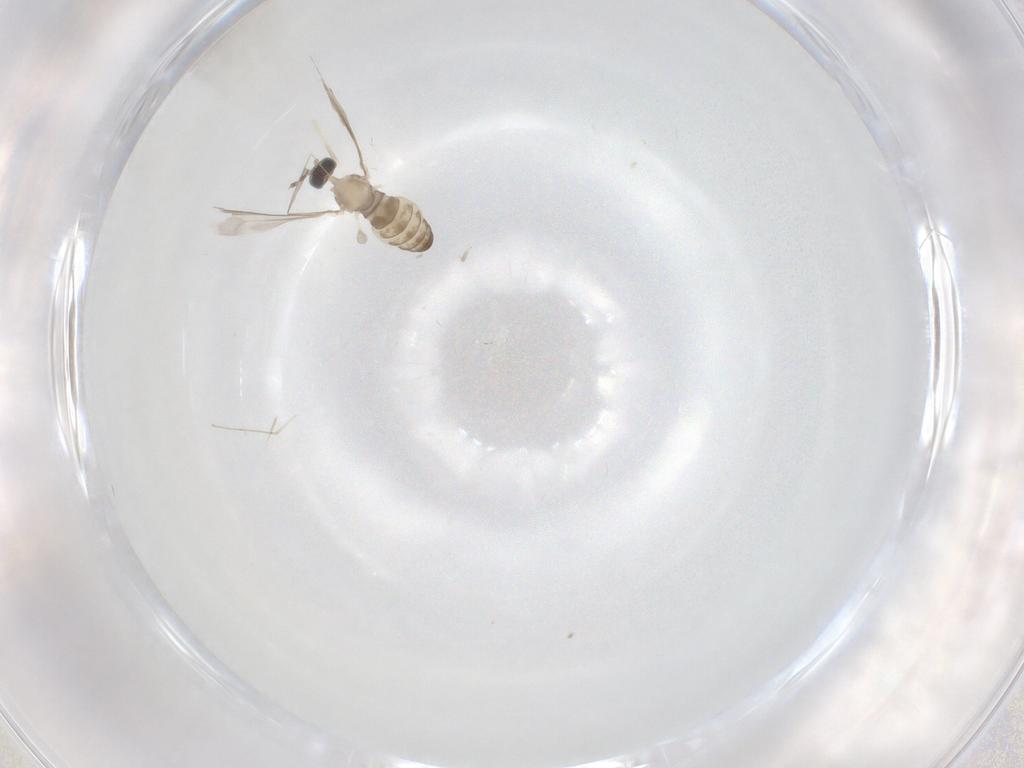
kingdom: Animalia
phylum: Arthropoda
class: Insecta
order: Diptera
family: Cecidomyiidae
